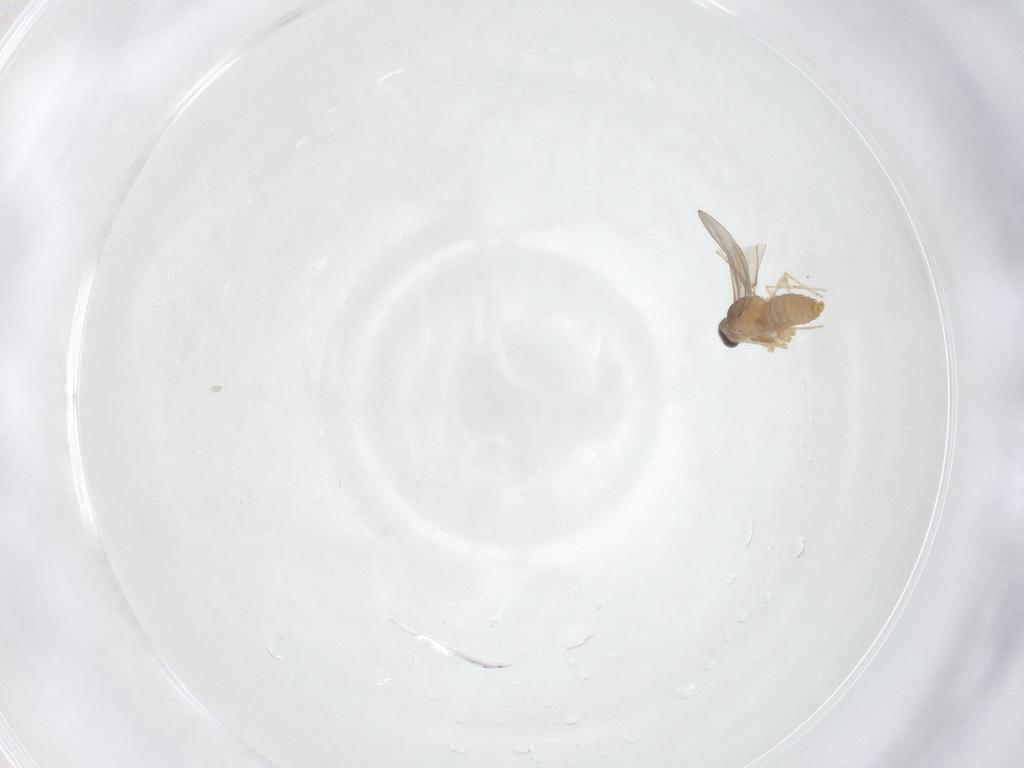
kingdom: Animalia
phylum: Arthropoda
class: Insecta
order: Diptera
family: Cecidomyiidae
